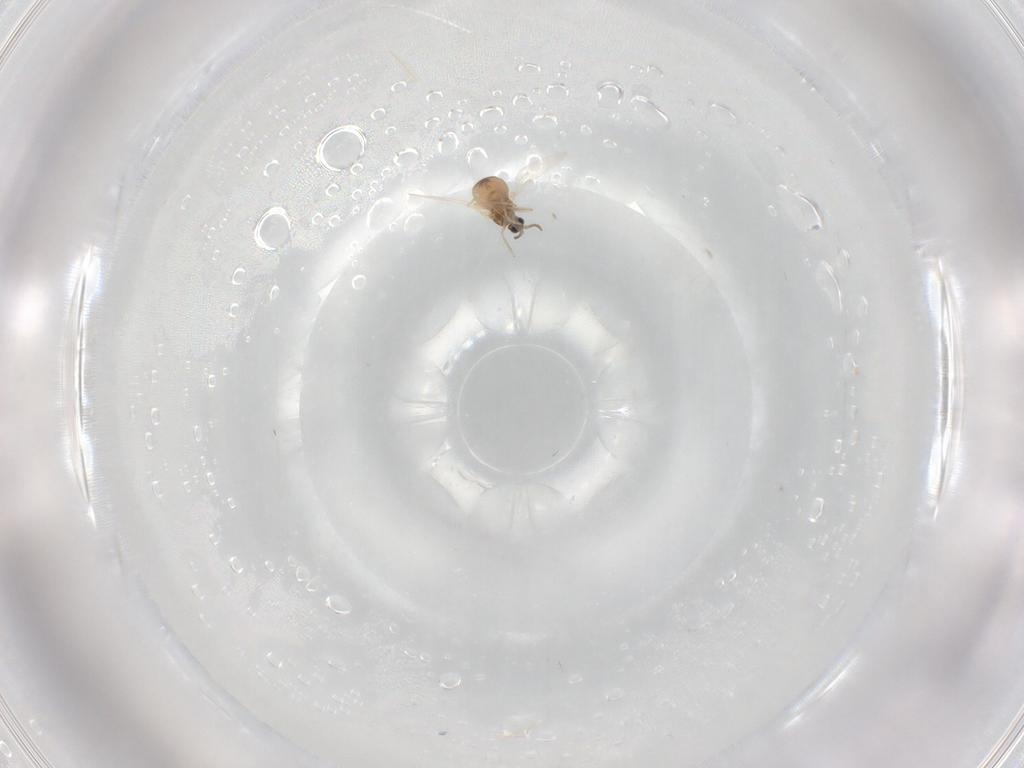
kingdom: Animalia
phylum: Arthropoda
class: Insecta
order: Diptera
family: Cecidomyiidae
